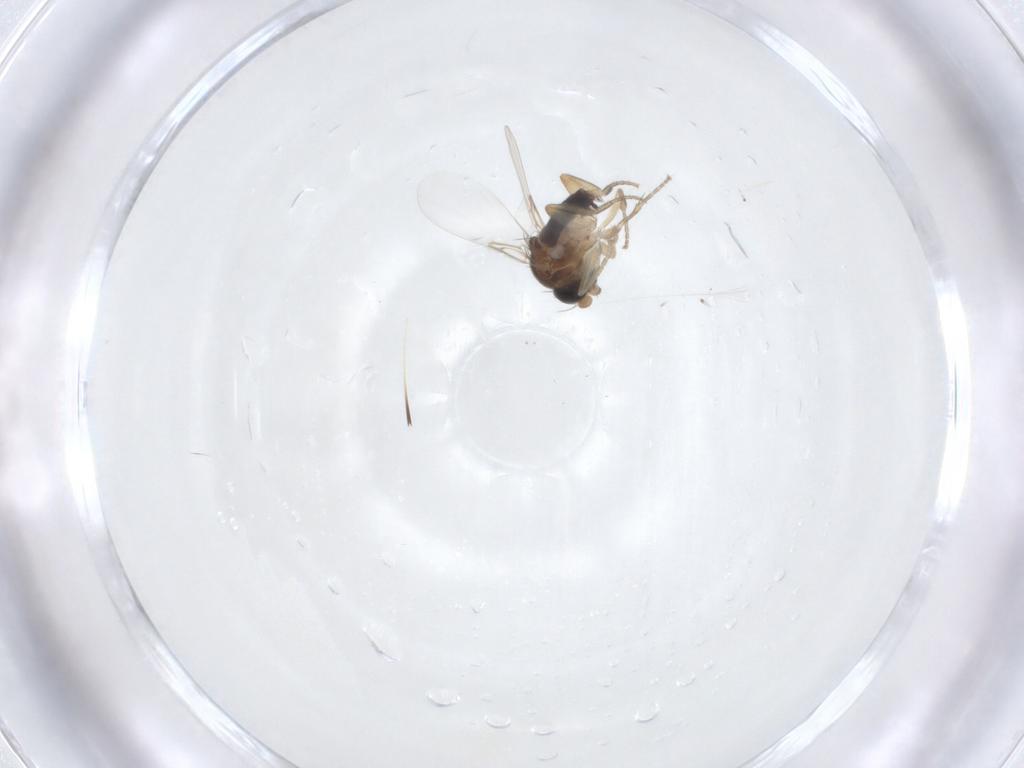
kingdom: Animalia
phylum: Arthropoda
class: Insecta
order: Diptera
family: Phoridae
